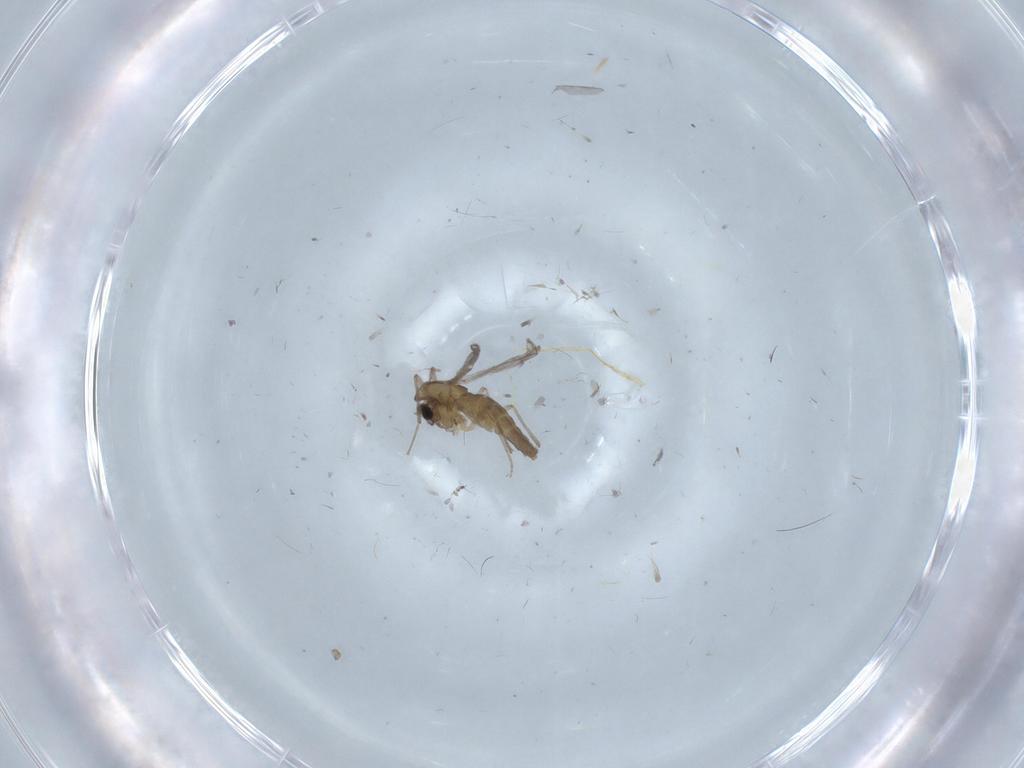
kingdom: Animalia
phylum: Arthropoda
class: Insecta
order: Diptera
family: Chironomidae
